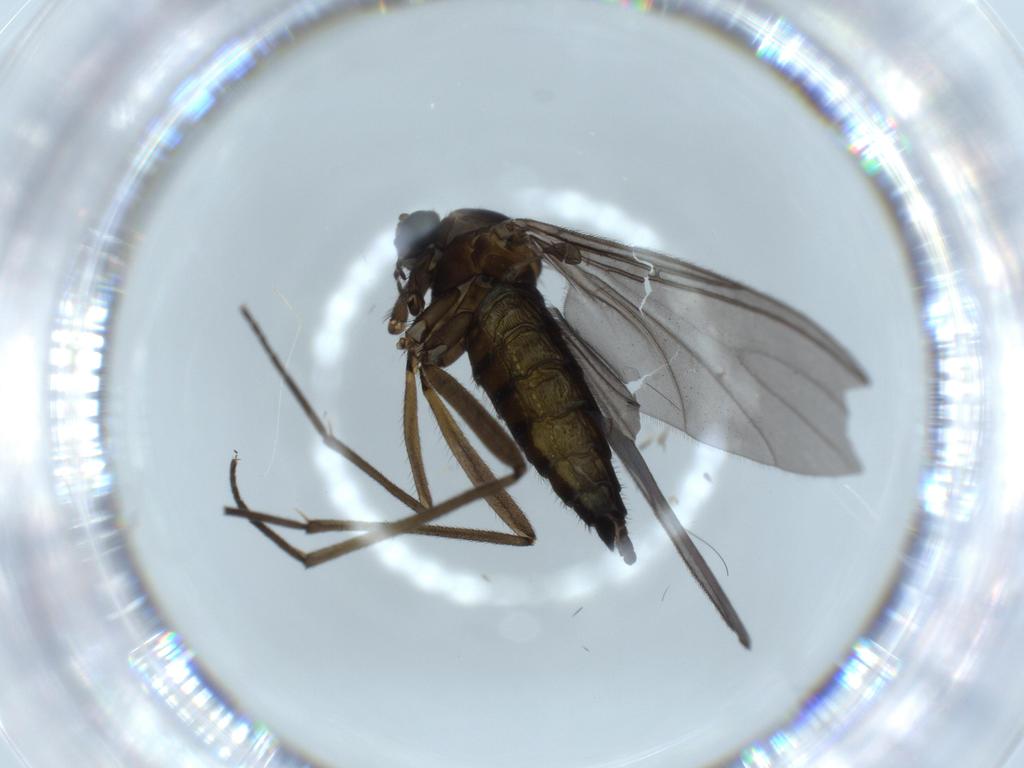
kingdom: Animalia
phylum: Arthropoda
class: Insecta
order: Diptera
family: Sciaridae
